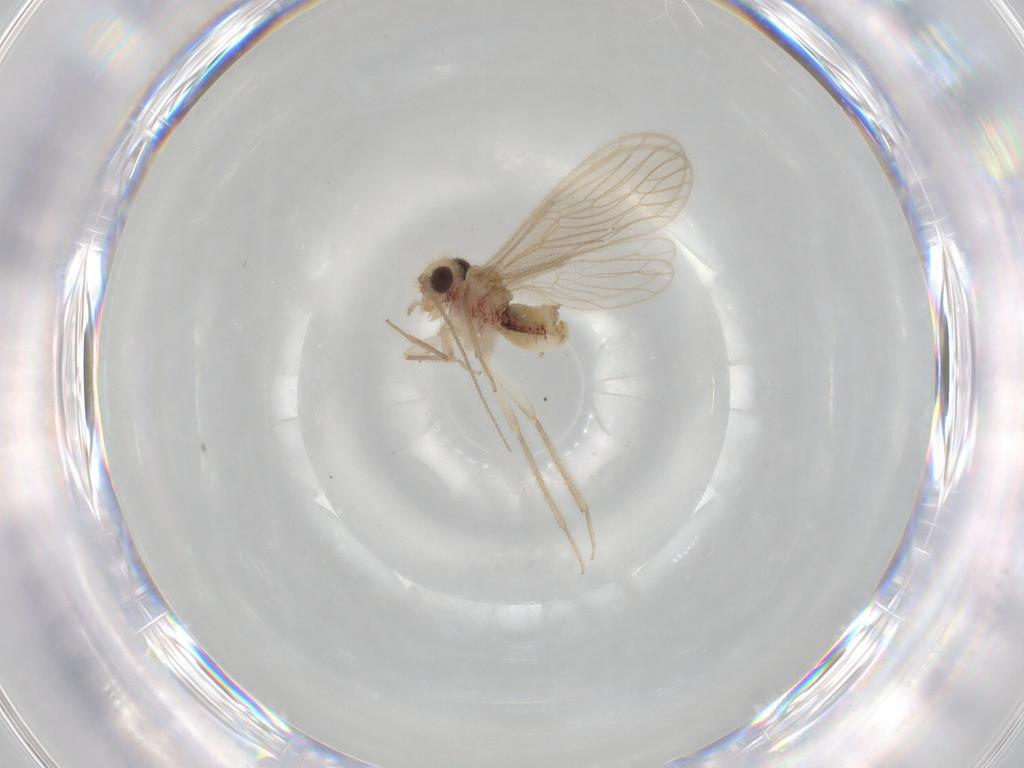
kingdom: Animalia
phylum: Arthropoda
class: Insecta
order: Psocodea
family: Dolabellopsocidae
